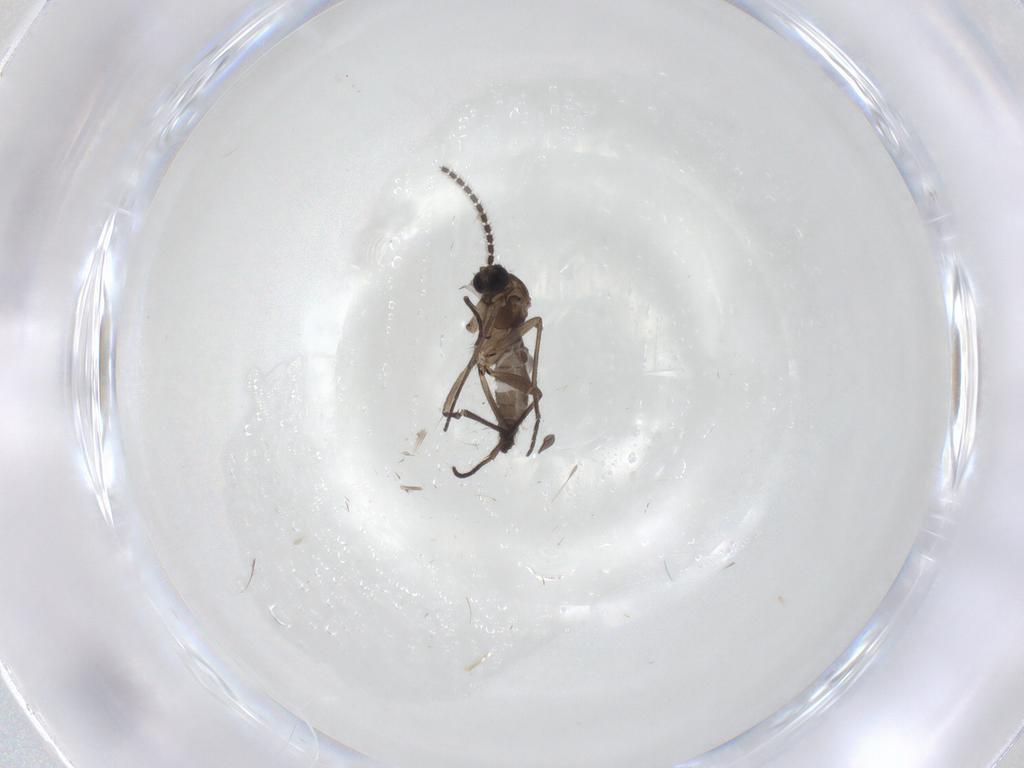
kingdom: Animalia
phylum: Arthropoda
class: Insecta
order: Diptera
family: Sciaridae
